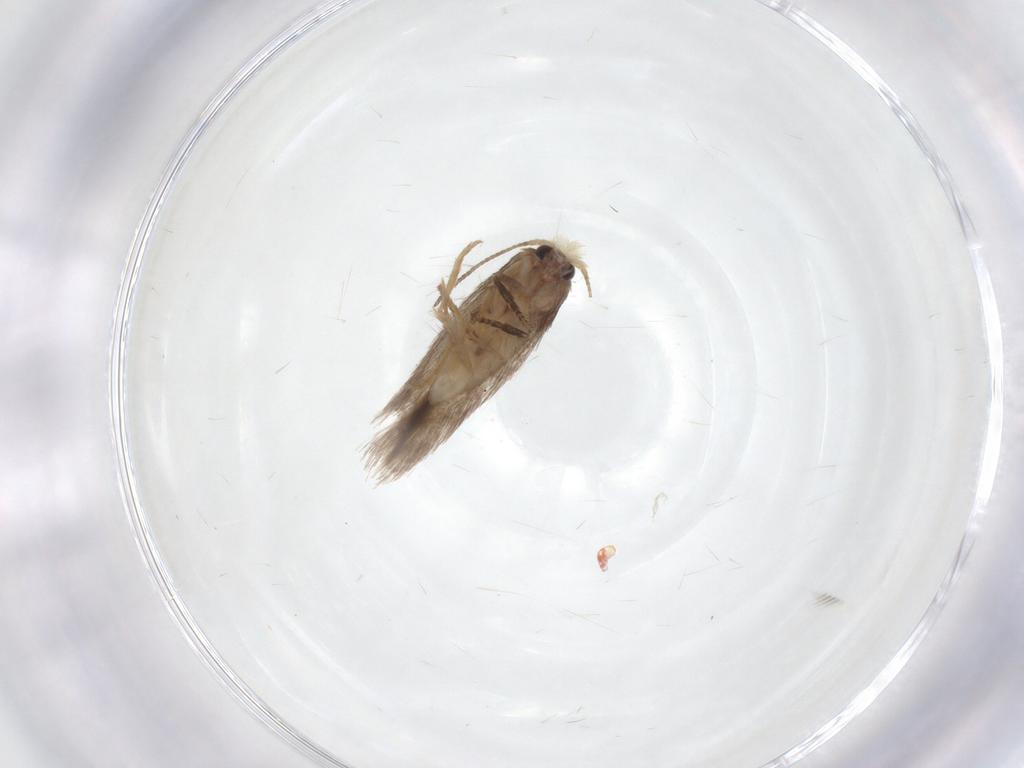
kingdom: Animalia
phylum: Arthropoda
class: Insecta
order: Lepidoptera
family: Nepticulidae
